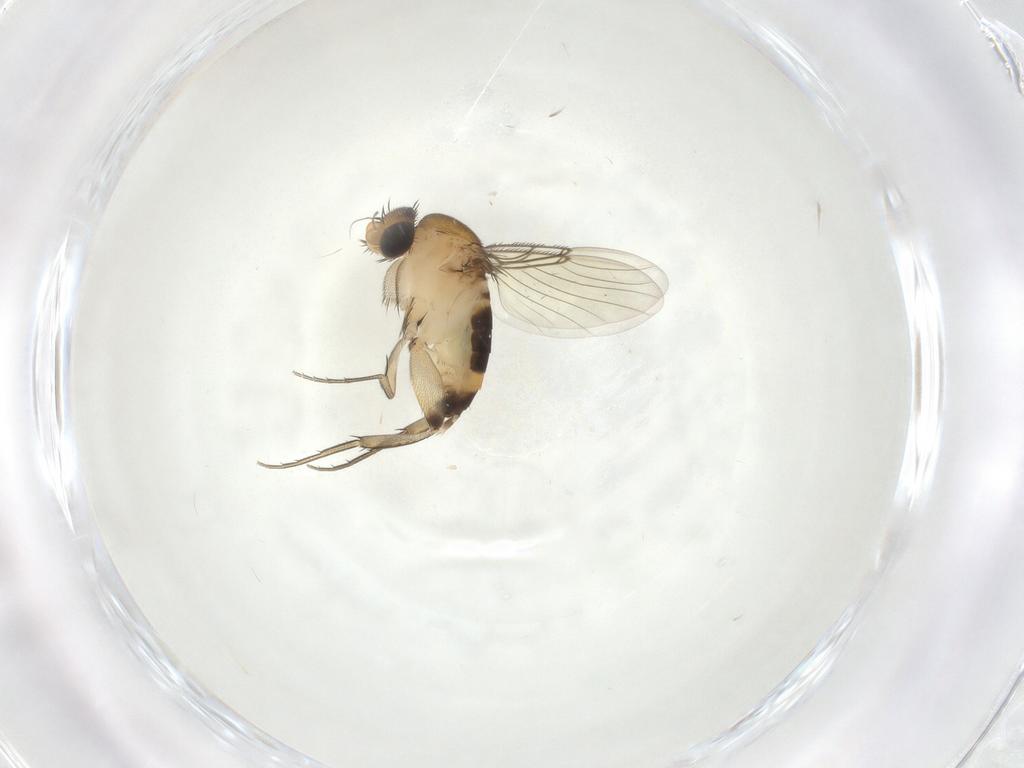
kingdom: Animalia
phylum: Arthropoda
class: Insecta
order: Diptera
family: Phoridae
